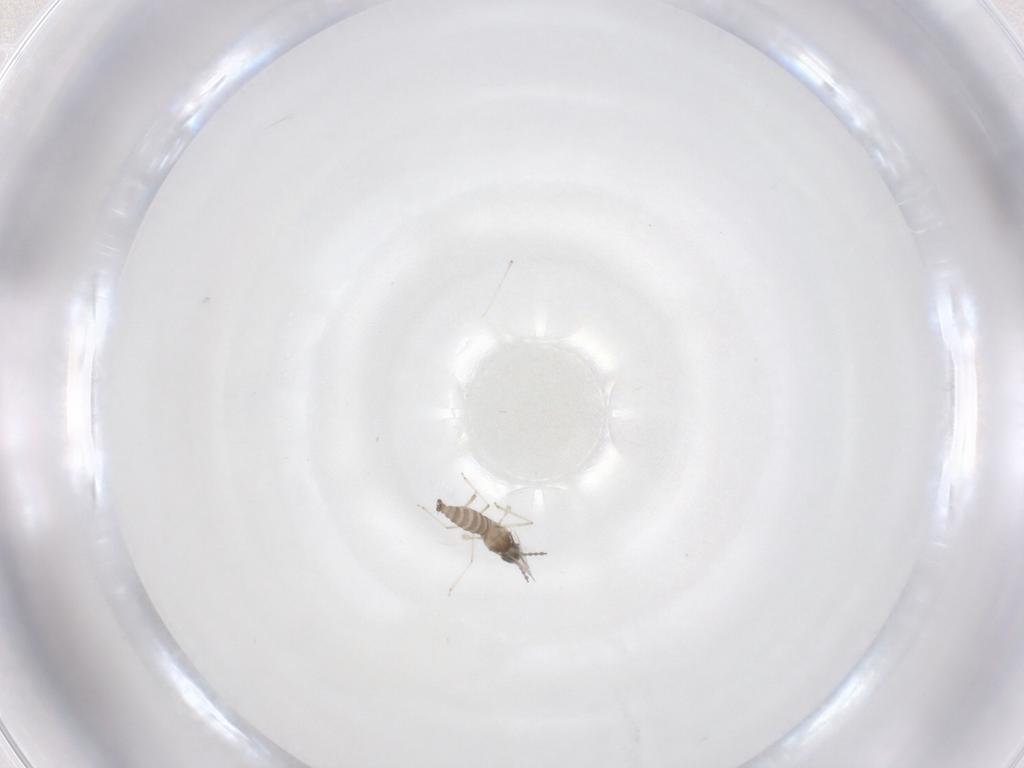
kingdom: Animalia
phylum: Arthropoda
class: Insecta
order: Diptera
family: Cecidomyiidae
